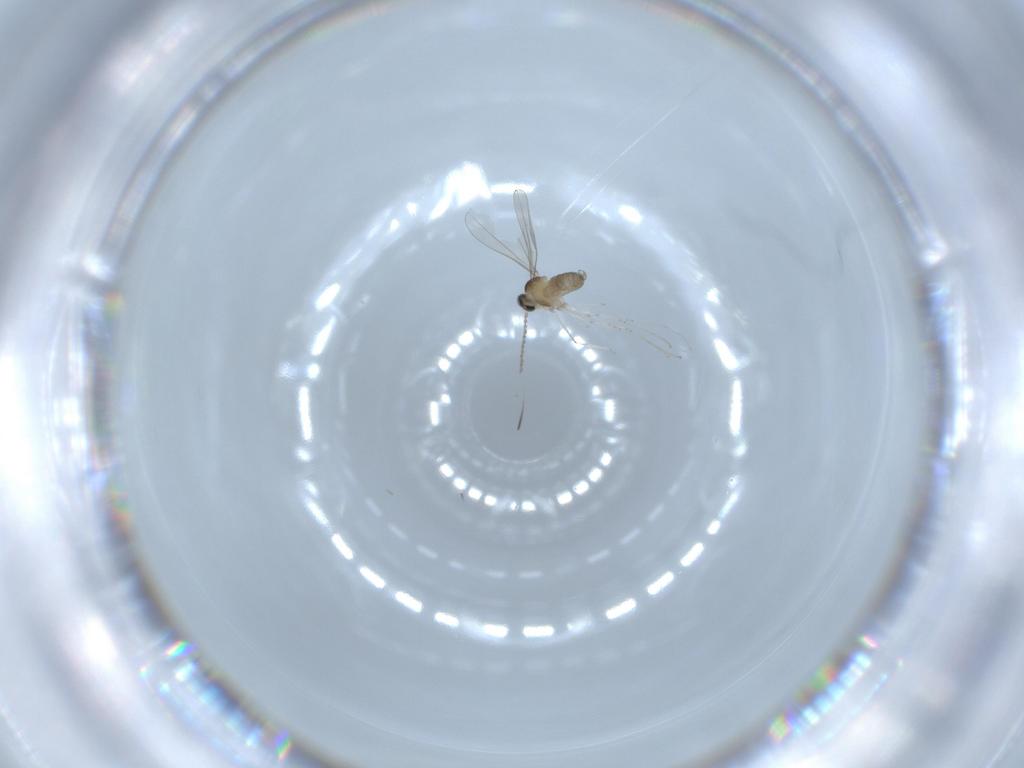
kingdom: Animalia
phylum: Arthropoda
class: Insecta
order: Diptera
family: Cecidomyiidae
